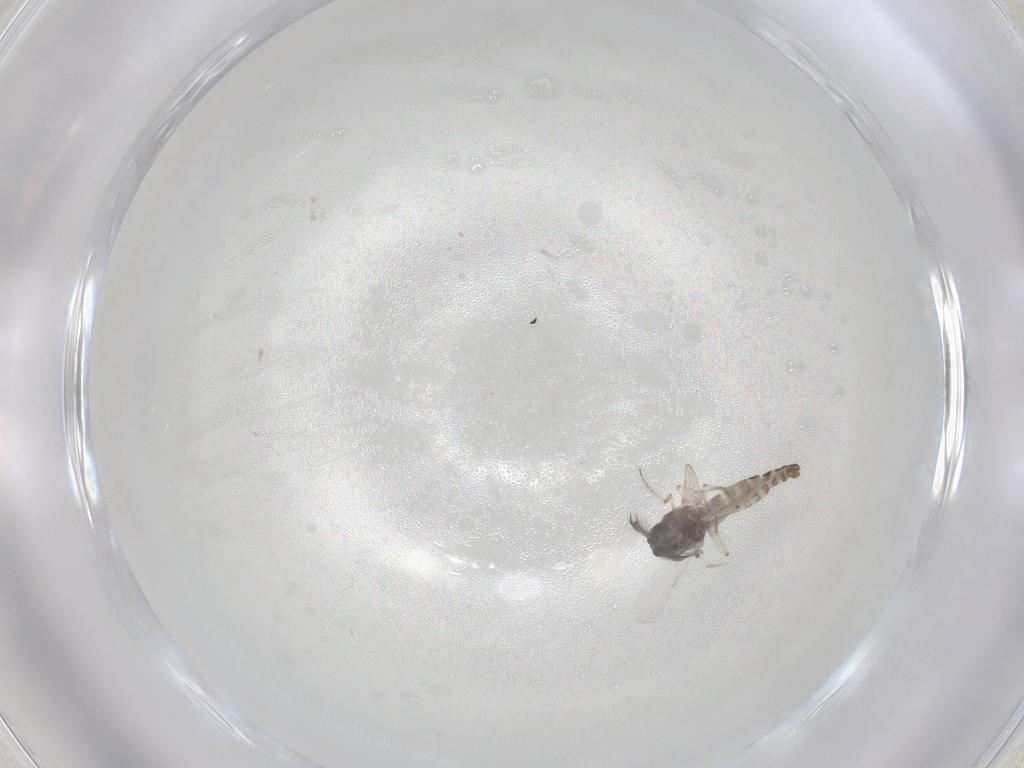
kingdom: Animalia
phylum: Arthropoda
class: Insecta
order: Diptera
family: Ceratopogonidae
